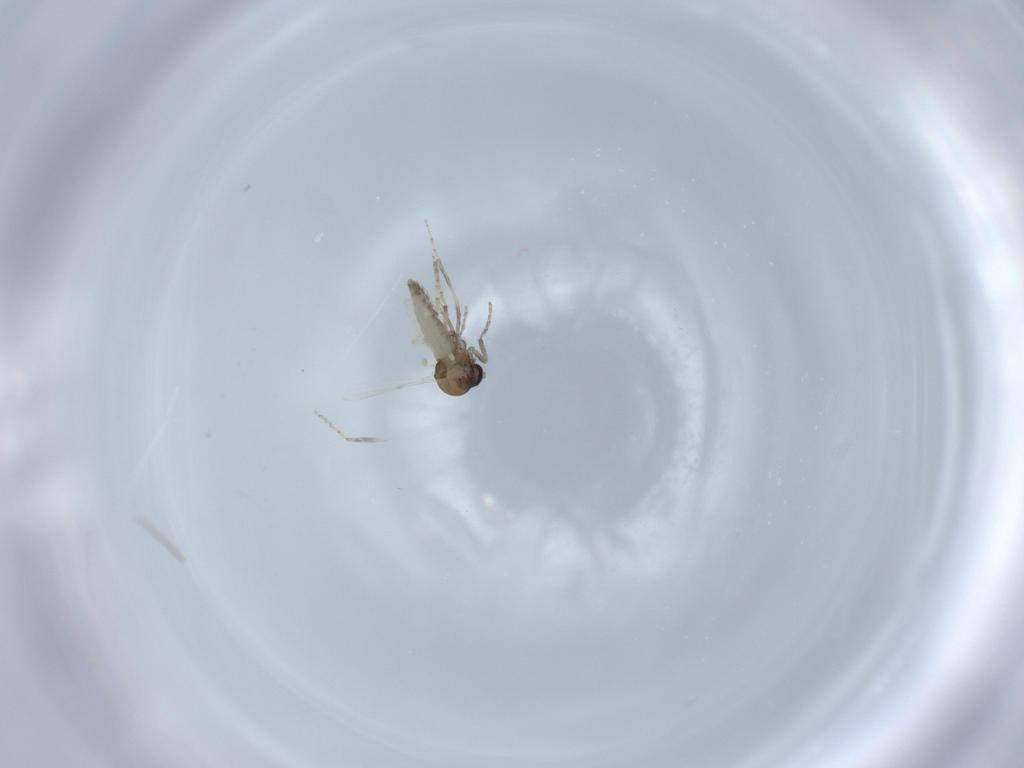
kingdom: Animalia
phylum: Arthropoda
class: Insecta
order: Diptera
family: Ceratopogonidae
